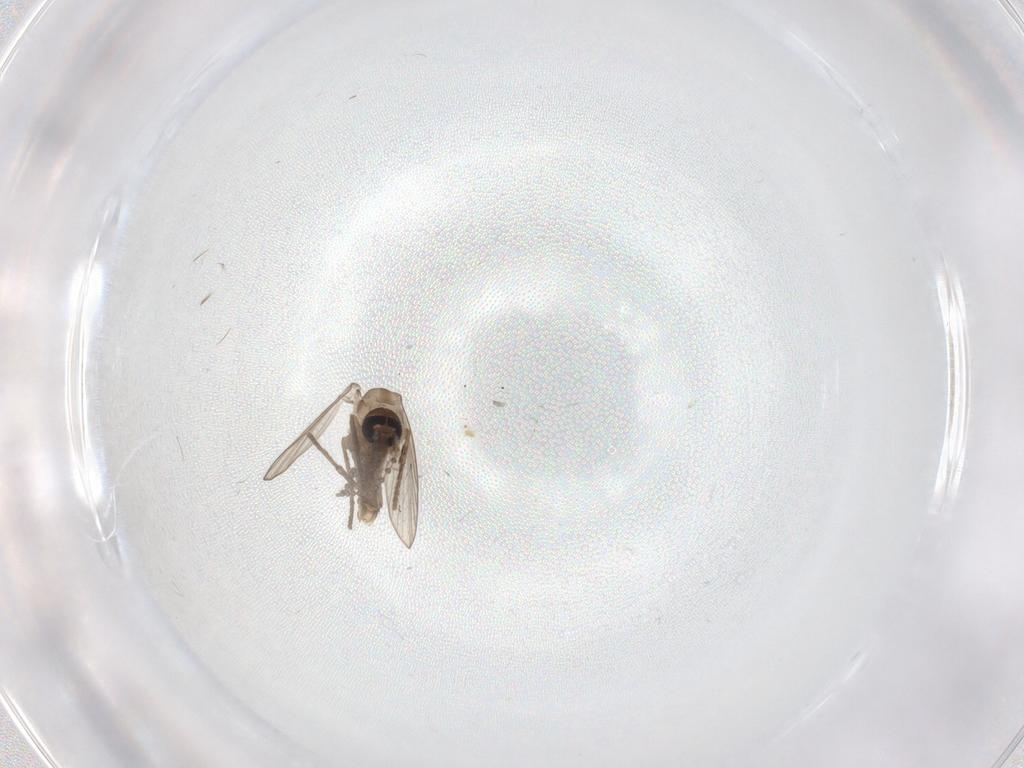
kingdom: Animalia
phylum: Arthropoda
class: Insecta
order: Diptera
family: Psychodidae
